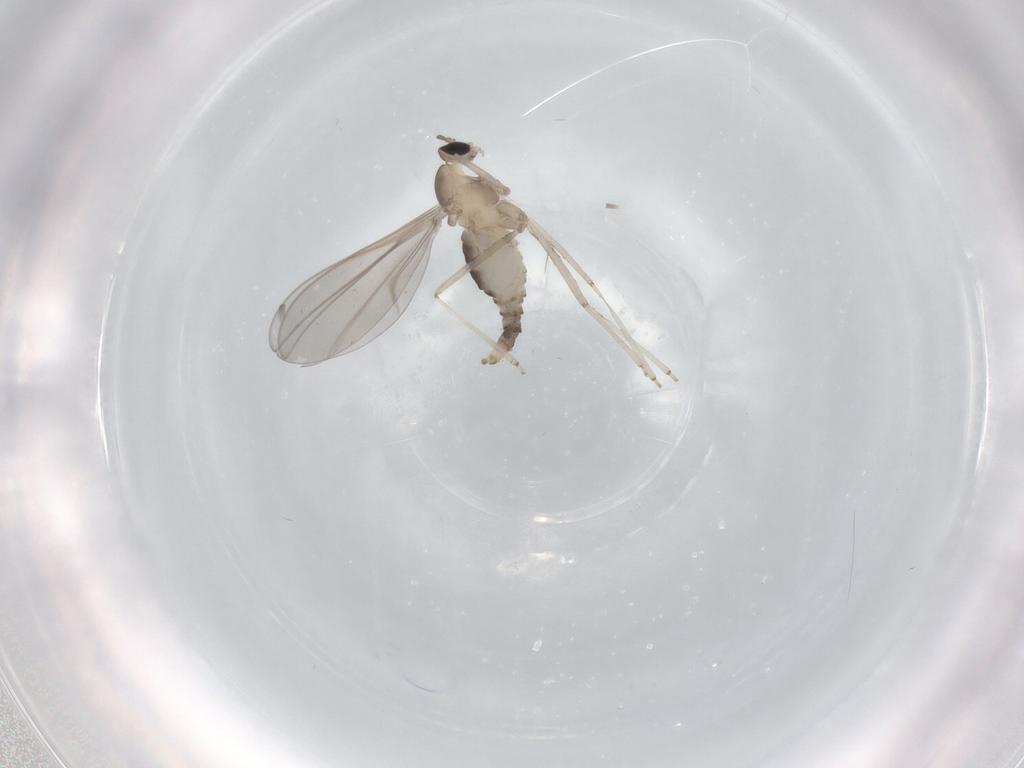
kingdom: Animalia
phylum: Arthropoda
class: Insecta
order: Diptera
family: Cecidomyiidae
